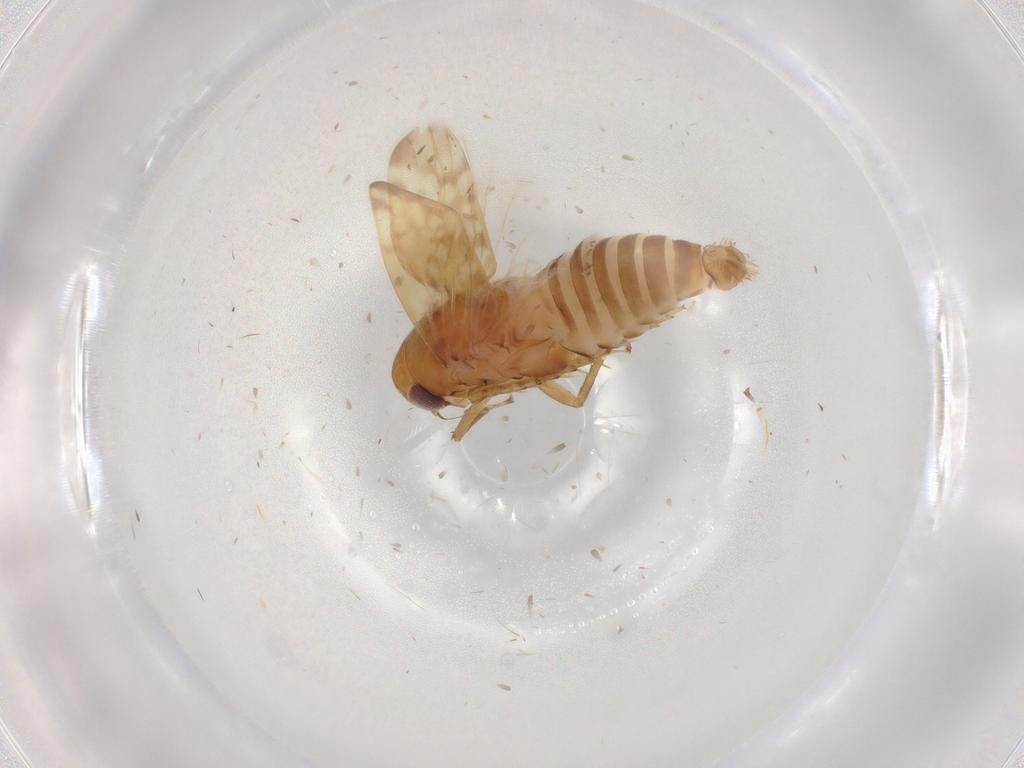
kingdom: Animalia
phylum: Arthropoda
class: Insecta
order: Hemiptera
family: Cicadellidae
